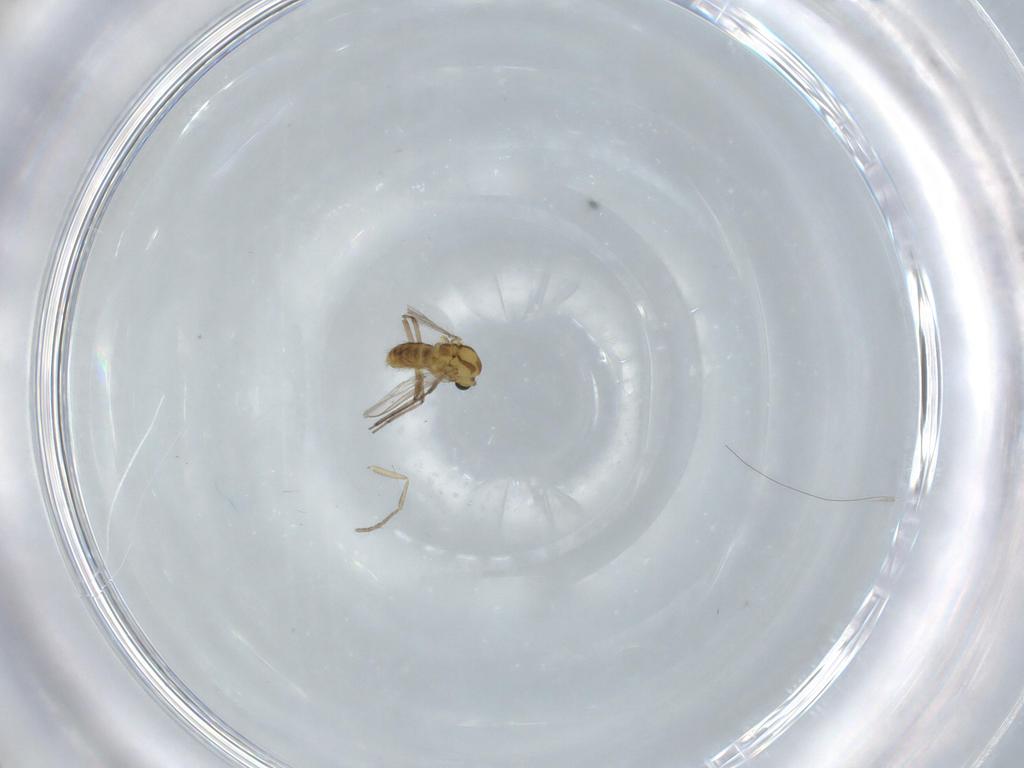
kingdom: Animalia
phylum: Arthropoda
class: Insecta
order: Diptera
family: Chironomidae
